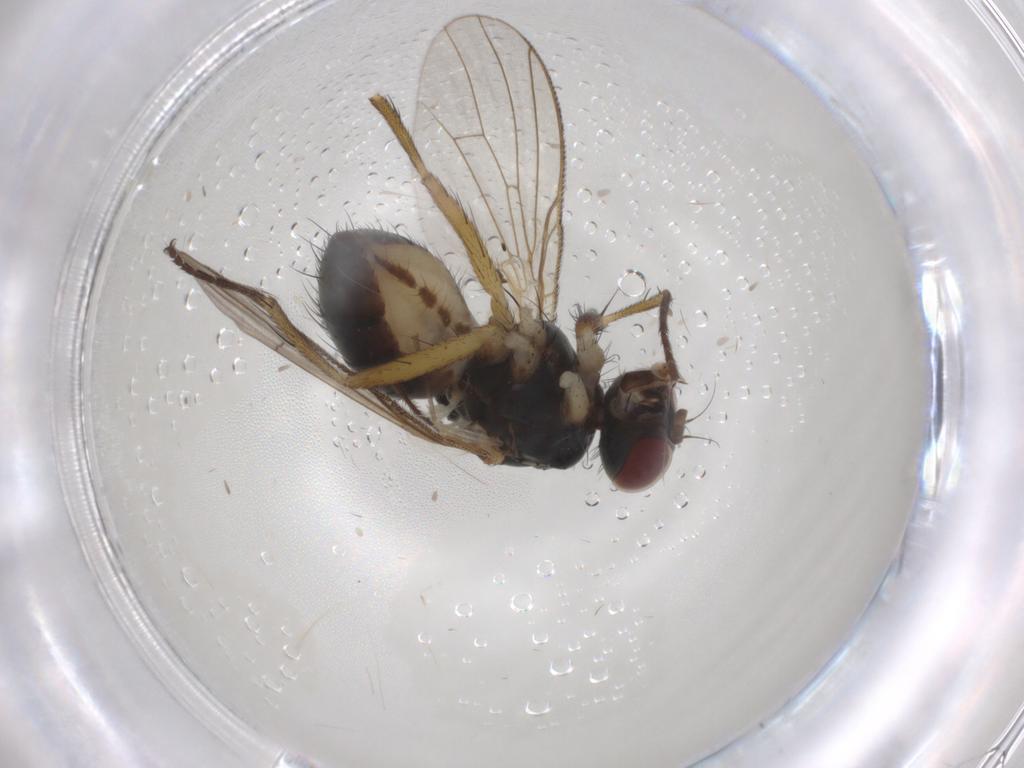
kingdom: Animalia
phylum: Arthropoda
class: Insecta
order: Diptera
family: Muscidae
